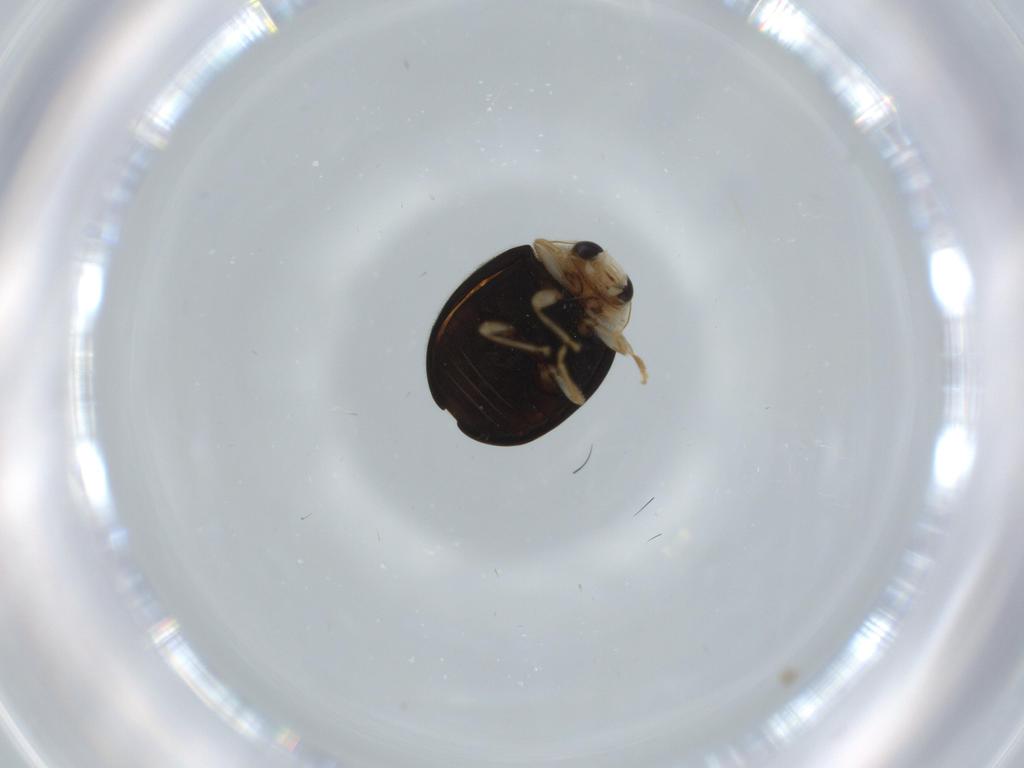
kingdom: Animalia
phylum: Arthropoda
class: Insecta
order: Coleoptera
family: Coccinellidae
